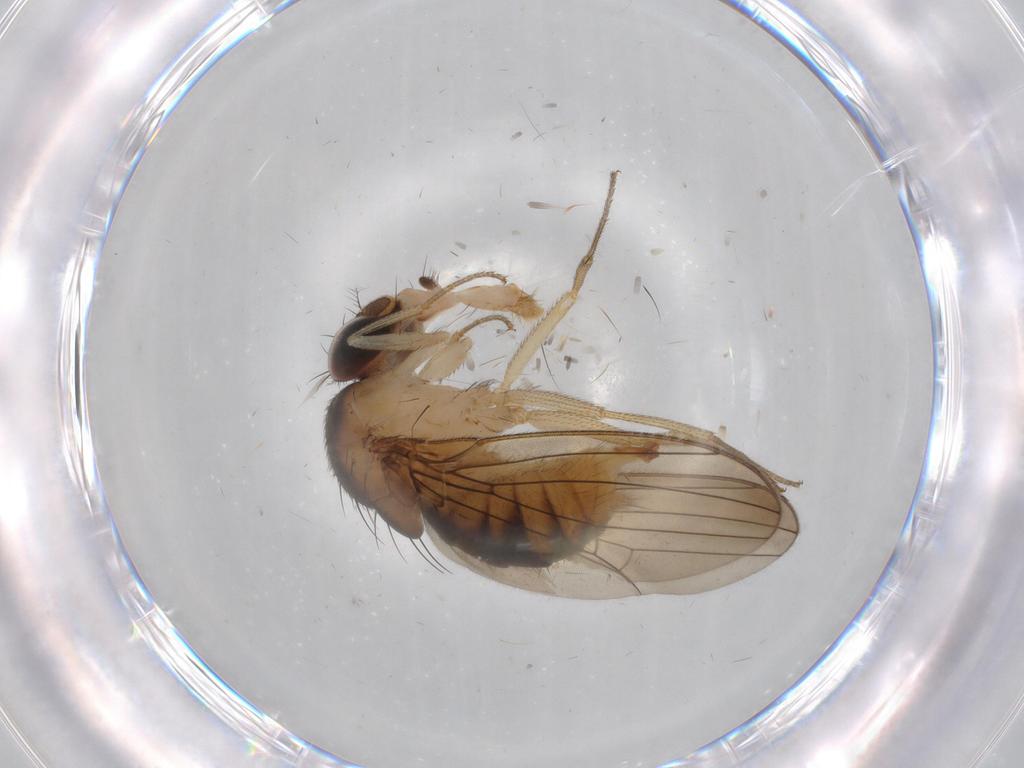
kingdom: Animalia
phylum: Arthropoda
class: Insecta
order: Diptera
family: Drosophilidae
